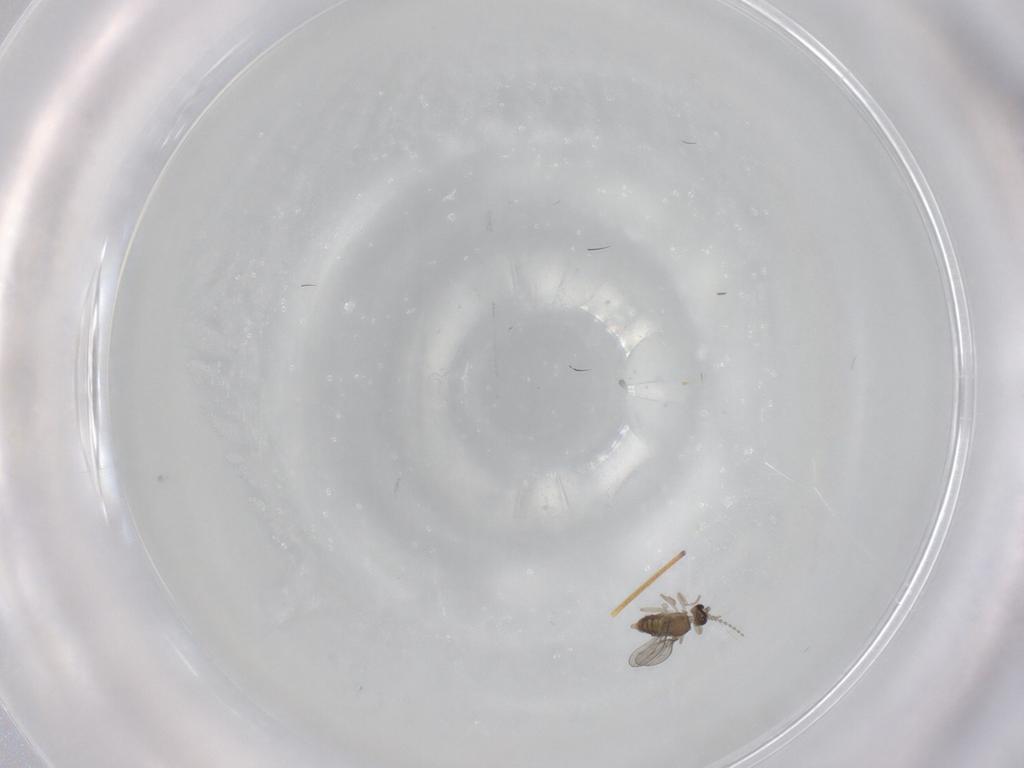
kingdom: Animalia
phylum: Arthropoda
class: Insecta
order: Diptera
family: Cecidomyiidae
